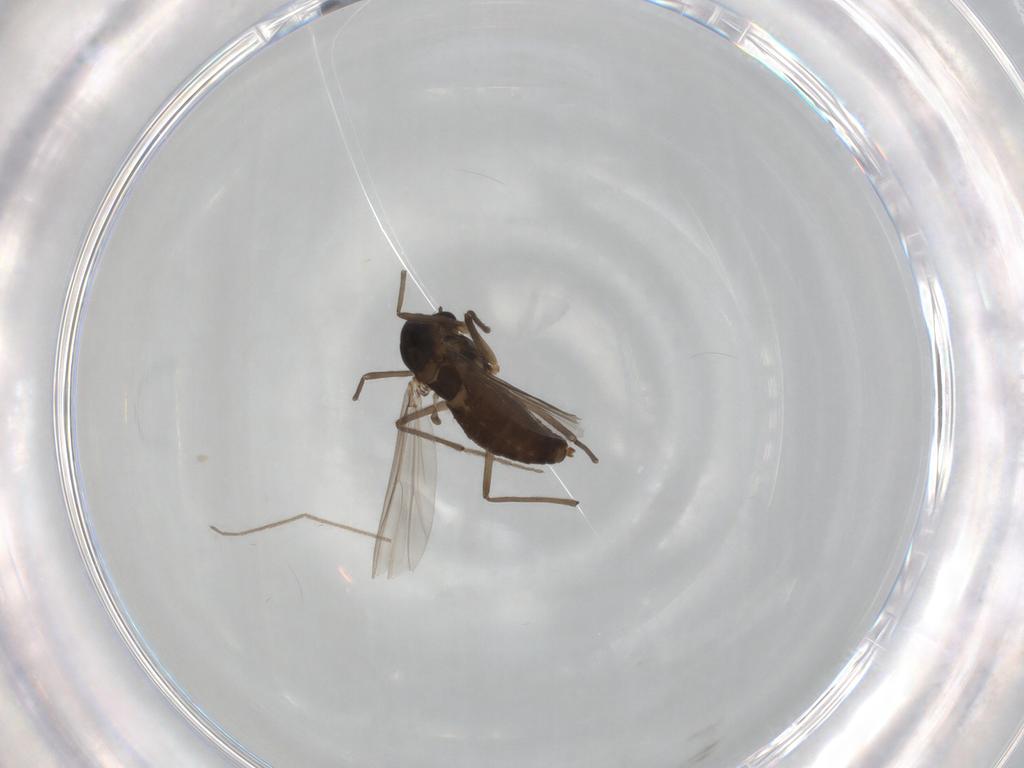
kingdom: Animalia
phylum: Arthropoda
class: Insecta
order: Diptera
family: Chironomidae
